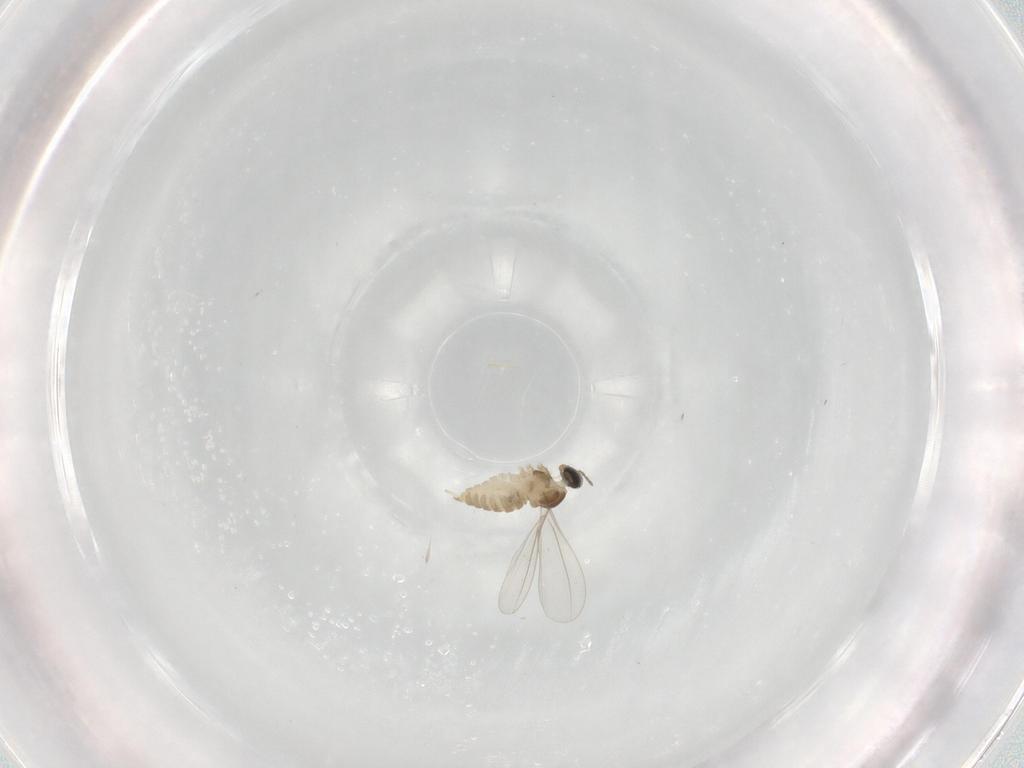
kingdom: Animalia
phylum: Arthropoda
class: Insecta
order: Diptera
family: Cecidomyiidae
